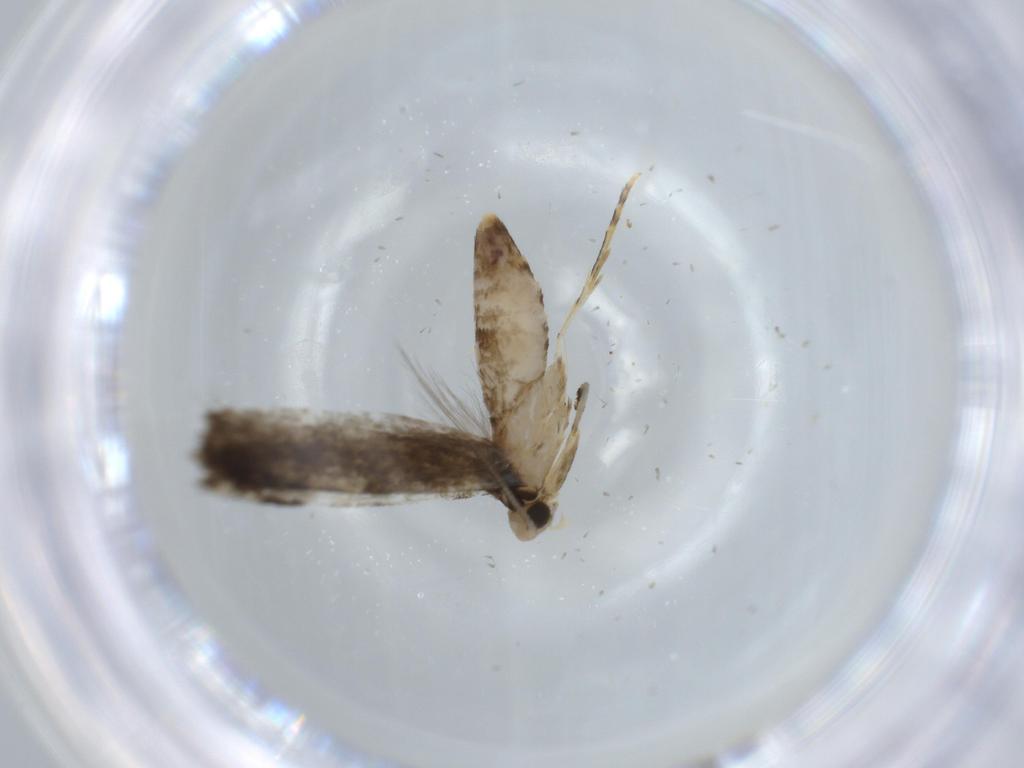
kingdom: Animalia
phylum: Arthropoda
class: Insecta
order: Lepidoptera
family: Meessiidae
